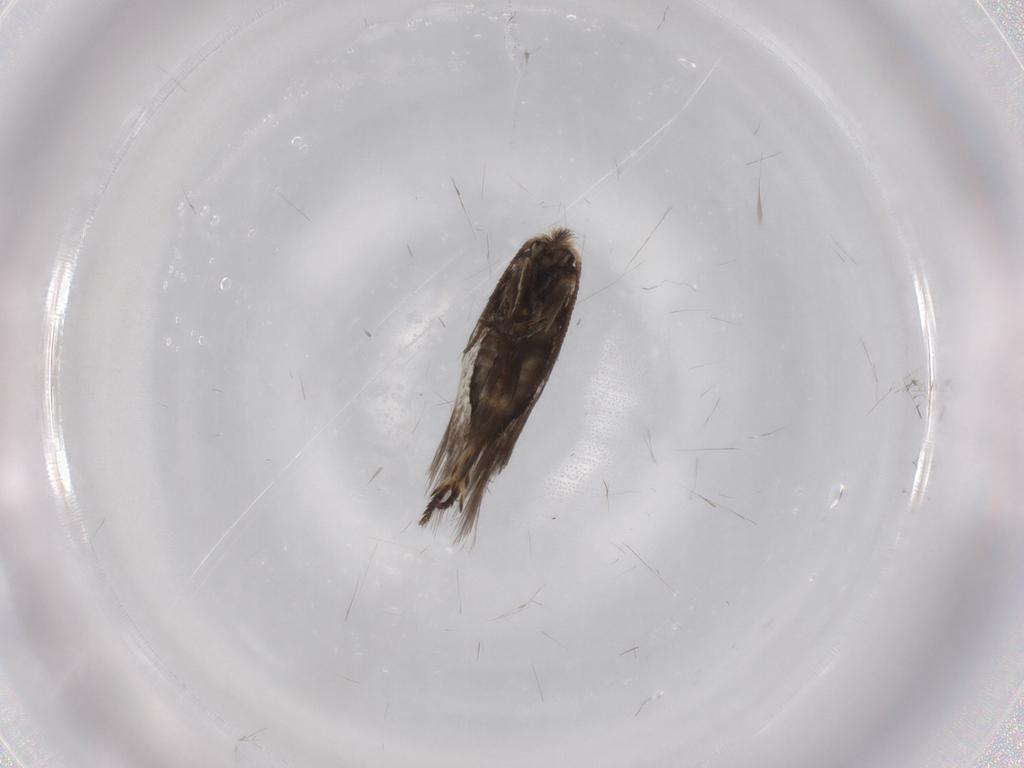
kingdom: Animalia
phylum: Arthropoda
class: Insecta
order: Lepidoptera
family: Nepticulidae
